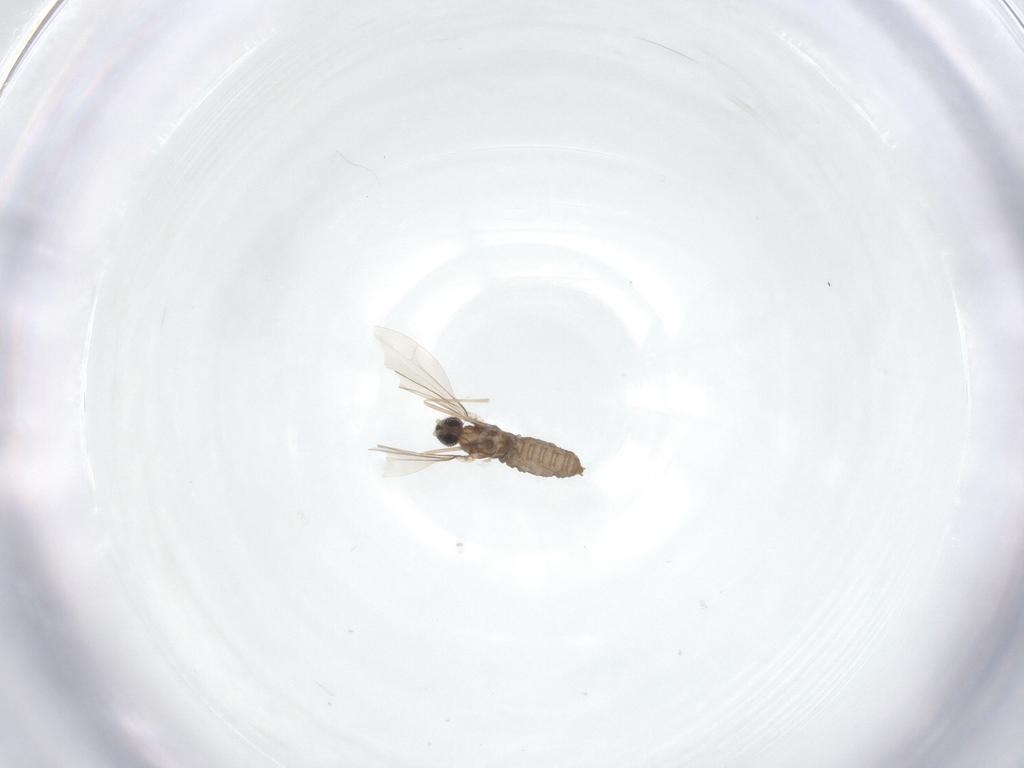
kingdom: Animalia
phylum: Arthropoda
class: Insecta
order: Diptera
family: Cecidomyiidae
